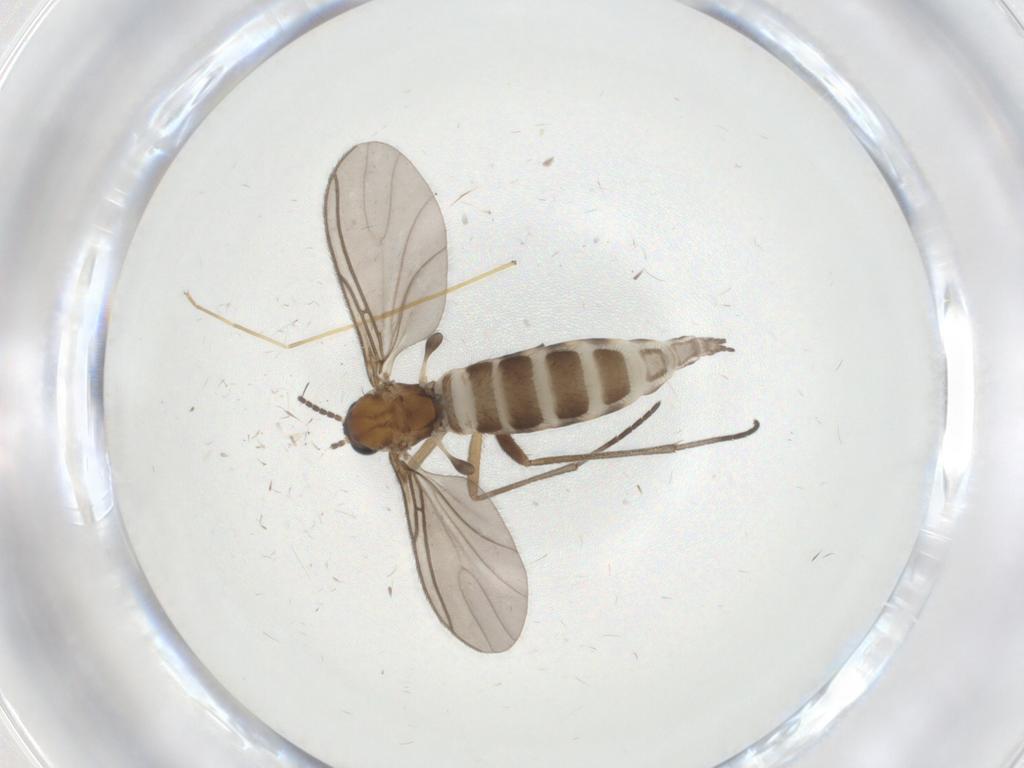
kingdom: Animalia
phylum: Arthropoda
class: Insecta
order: Diptera
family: Sciaridae
